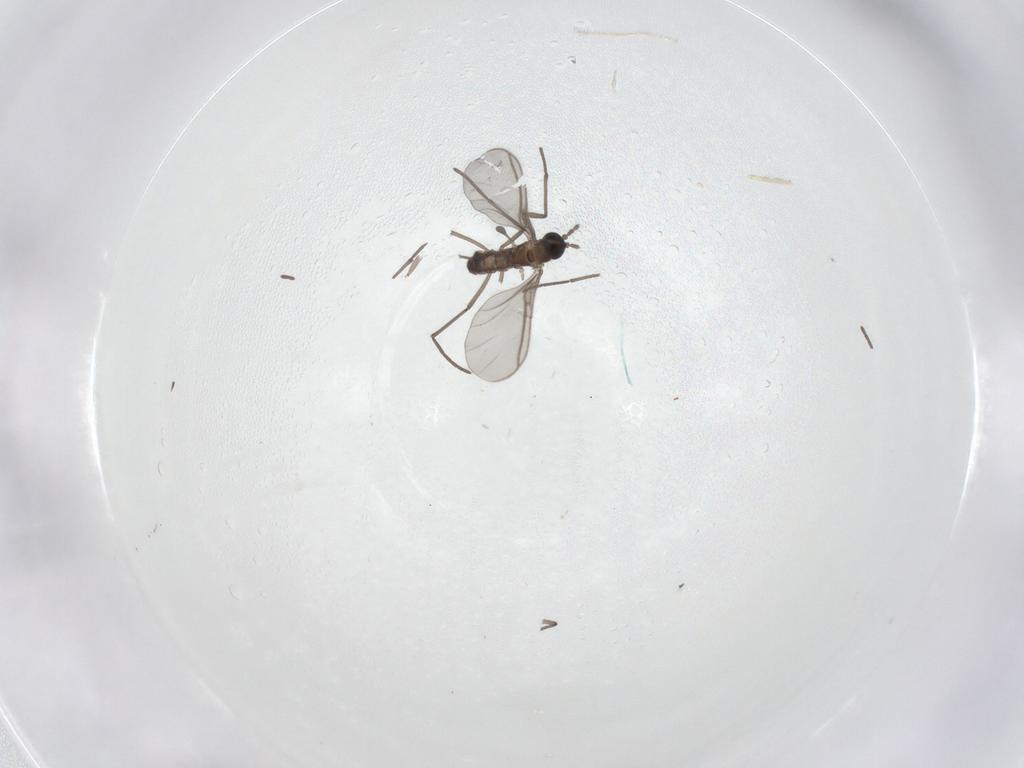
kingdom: Animalia
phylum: Arthropoda
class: Insecta
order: Diptera
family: Sciaridae
